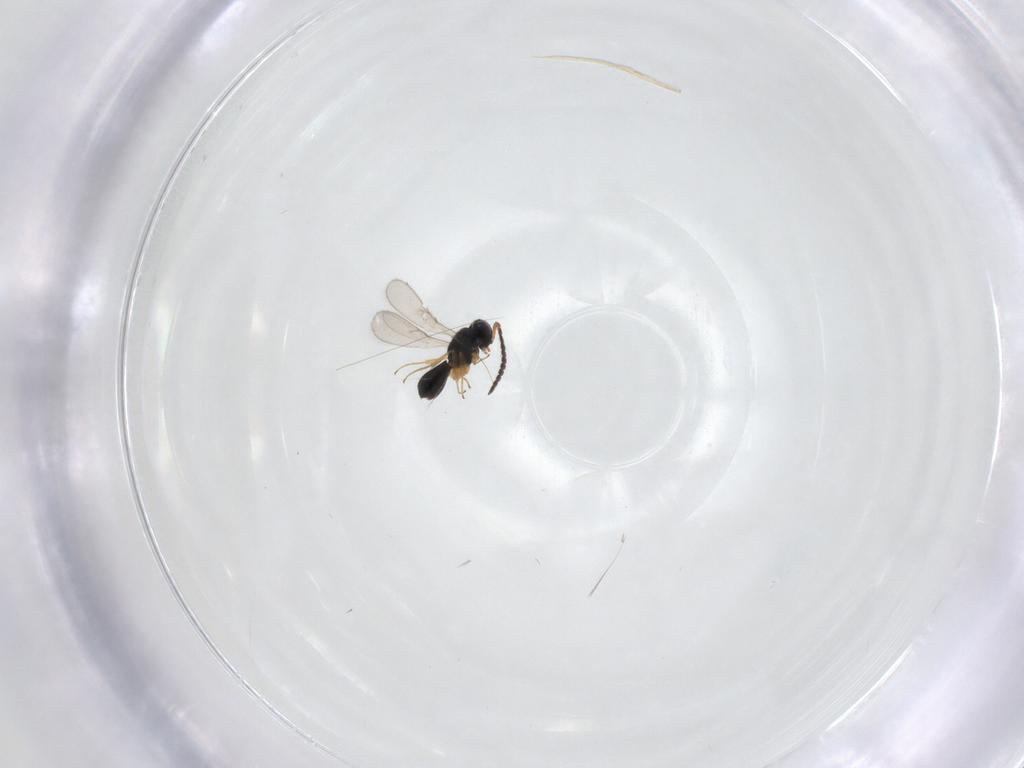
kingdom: Animalia
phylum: Arthropoda
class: Insecta
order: Hymenoptera
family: Scelionidae
